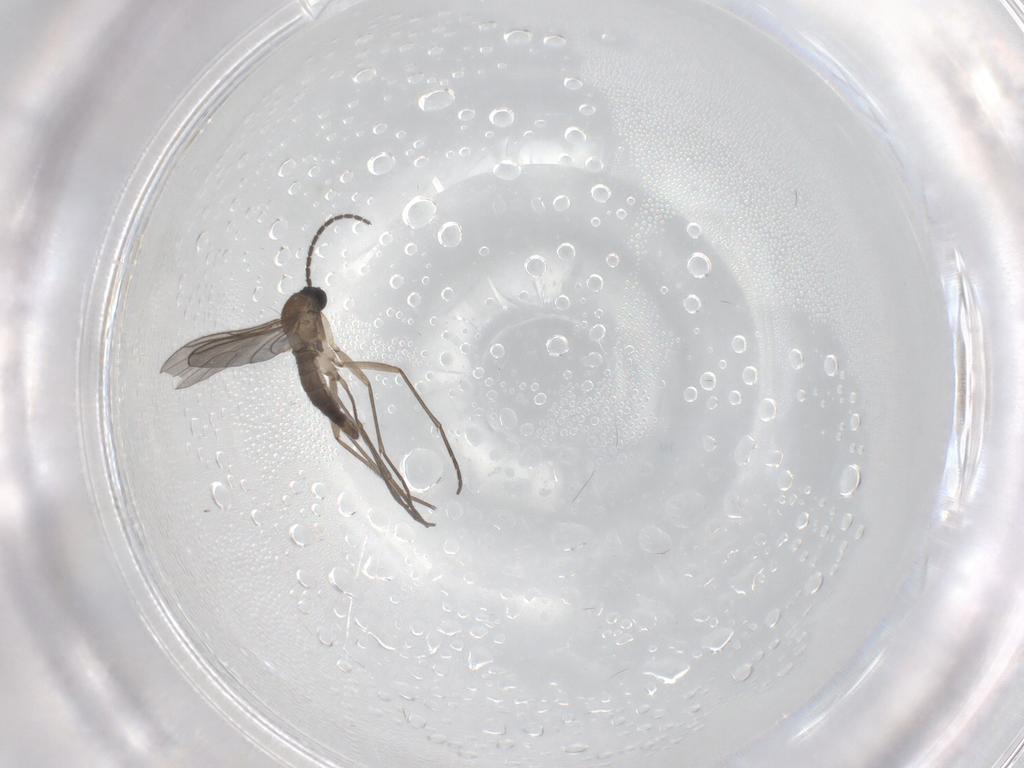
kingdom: Animalia
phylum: Arthropoda
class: Insecta
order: Diptera
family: Sciaridae
